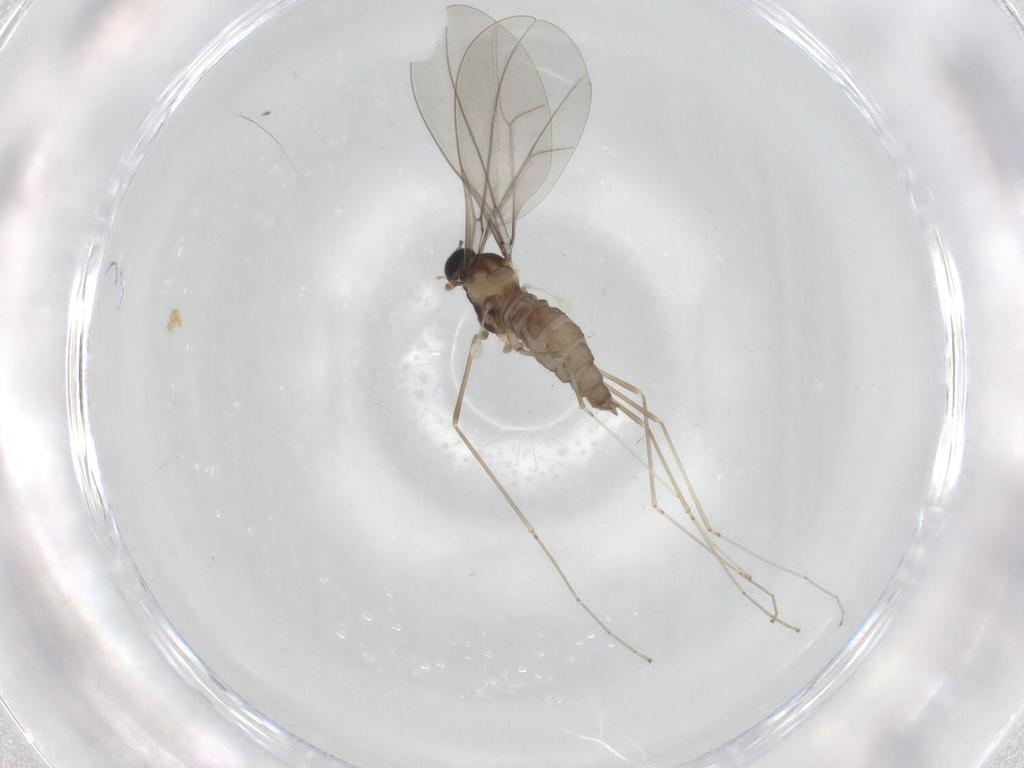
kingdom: Animalia
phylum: Arthropoda
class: Insecta
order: Diptera
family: Cecidomyiidae
